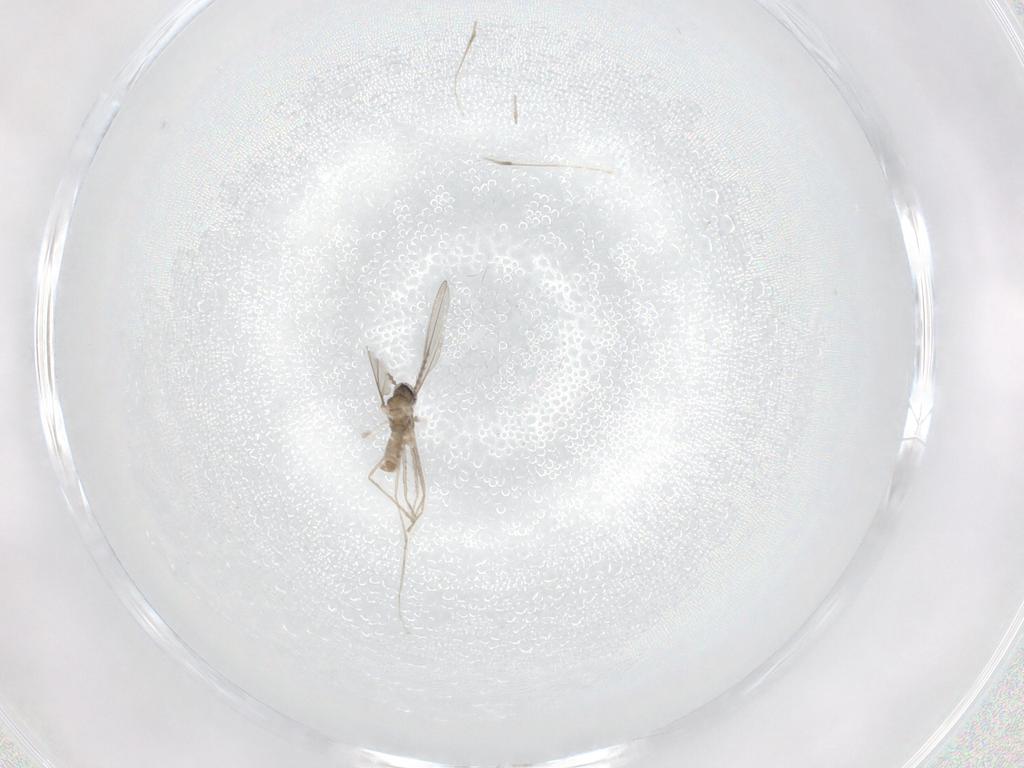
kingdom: Animalia
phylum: Arthropoda
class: Insecta
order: Diptera
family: Cecidomyiidae
